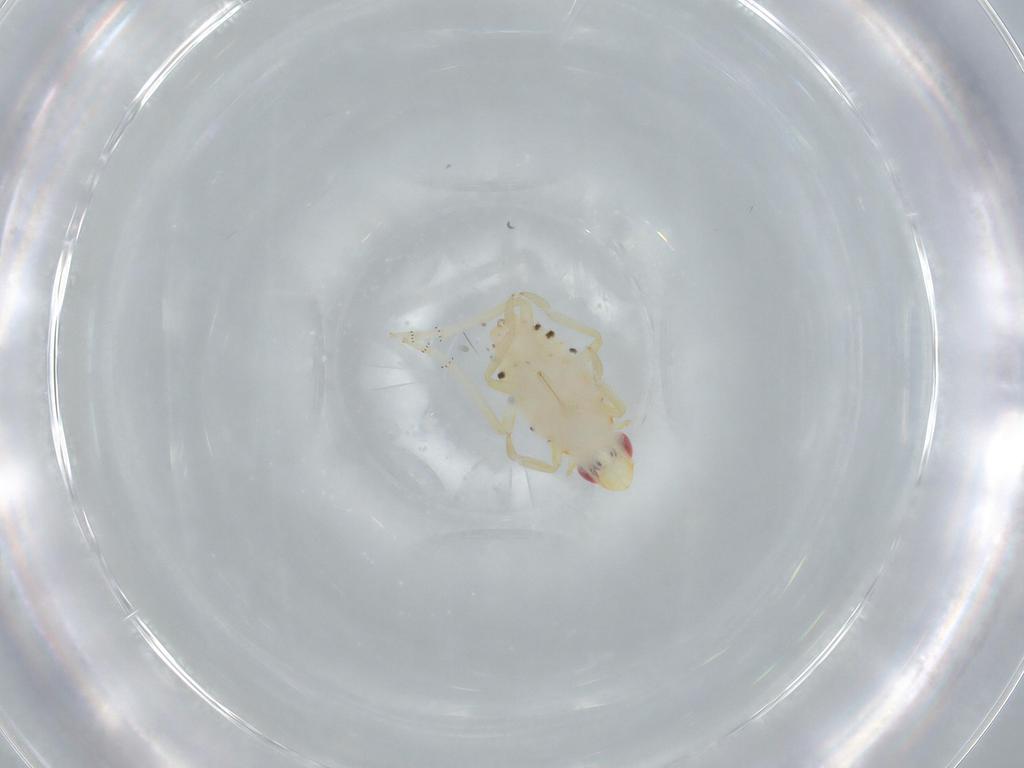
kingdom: Animalia
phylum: Arthropoda
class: Insecta
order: Hemiptera
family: Tropiduchidae
